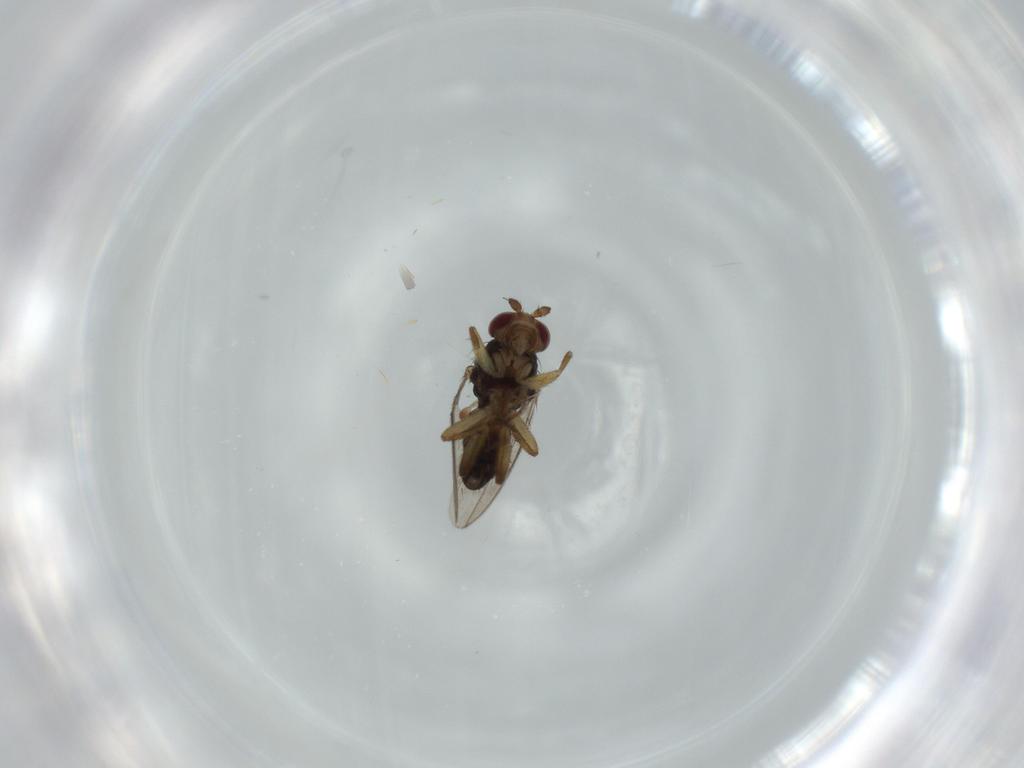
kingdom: Animalia
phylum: Arthropoda
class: Insecta
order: Diptera
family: Sphaeroceridae
